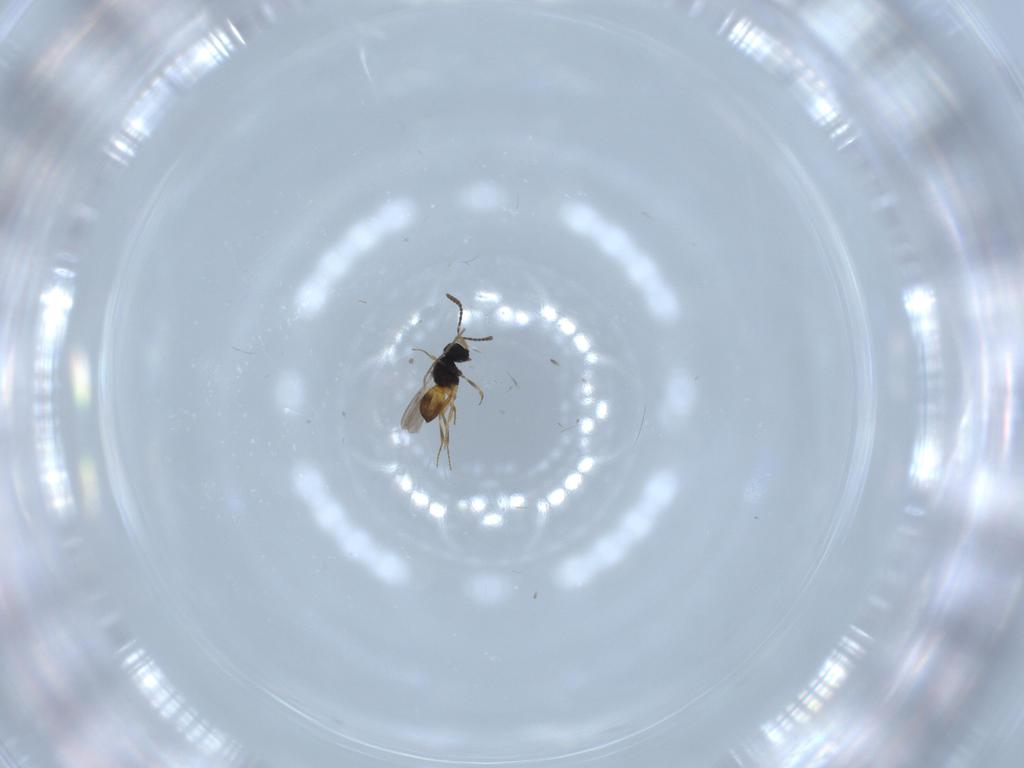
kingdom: Animalia
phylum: Arthropoda
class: Insecta
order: Hymenoptera
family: Scelionidae
